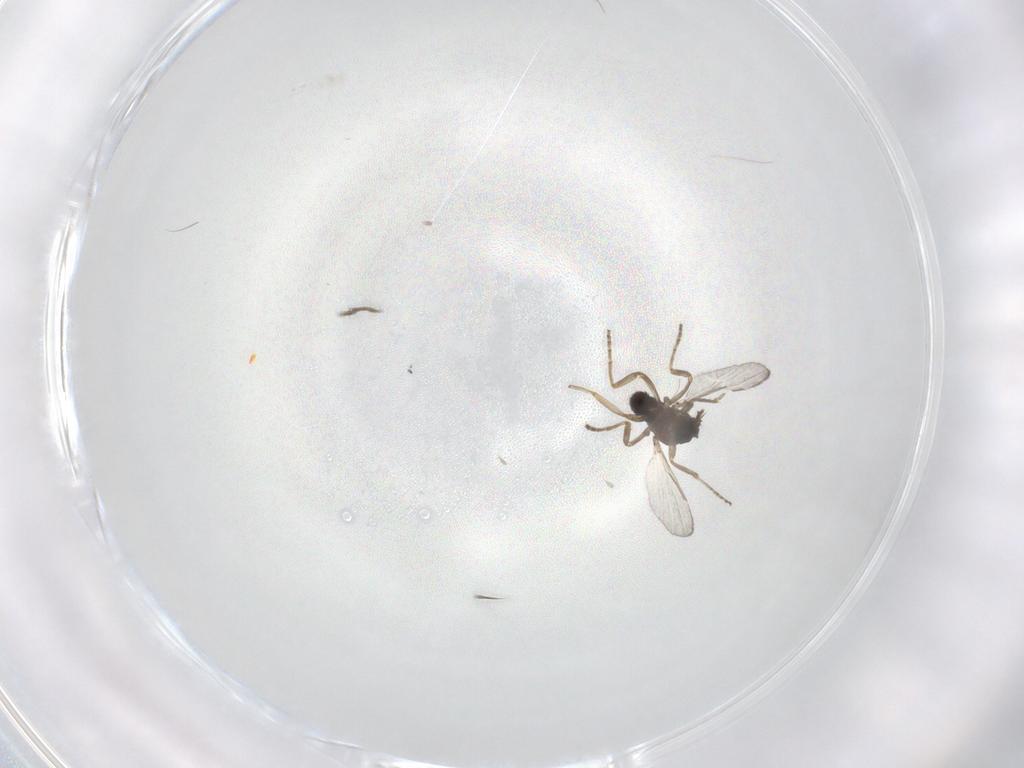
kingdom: Animalia
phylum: Arthropoda
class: Insecta
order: Diptera
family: Ceratopogonidae
